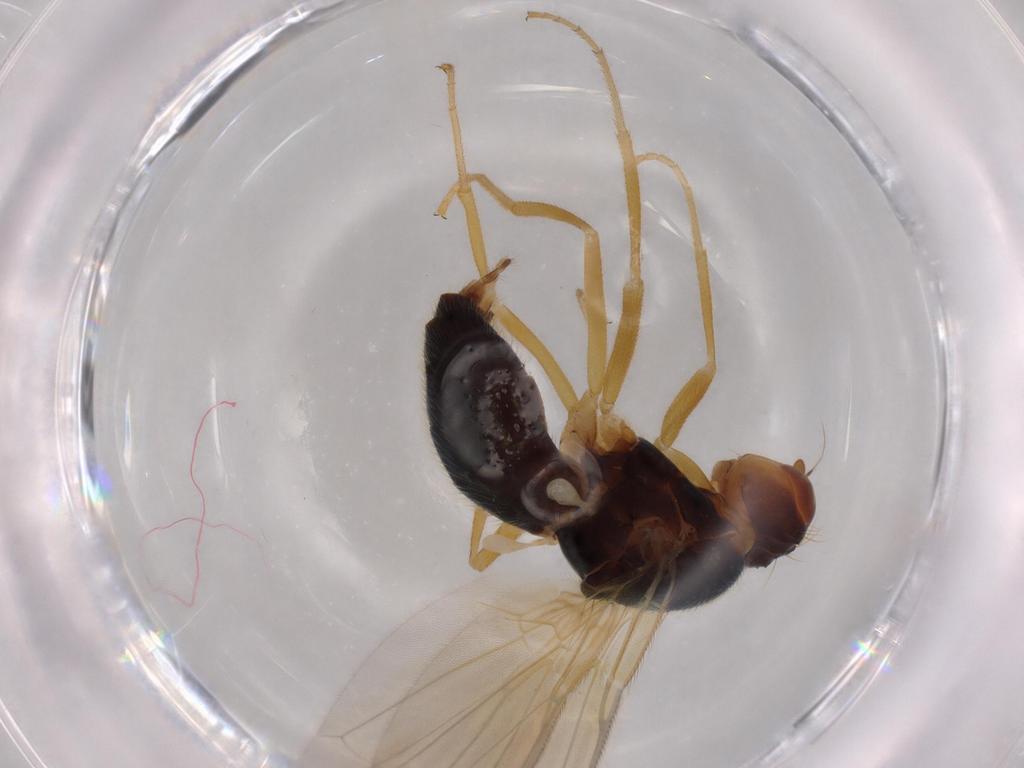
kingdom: Animalia
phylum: Arthropoda
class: Insecta
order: Diptera
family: Psilidae
